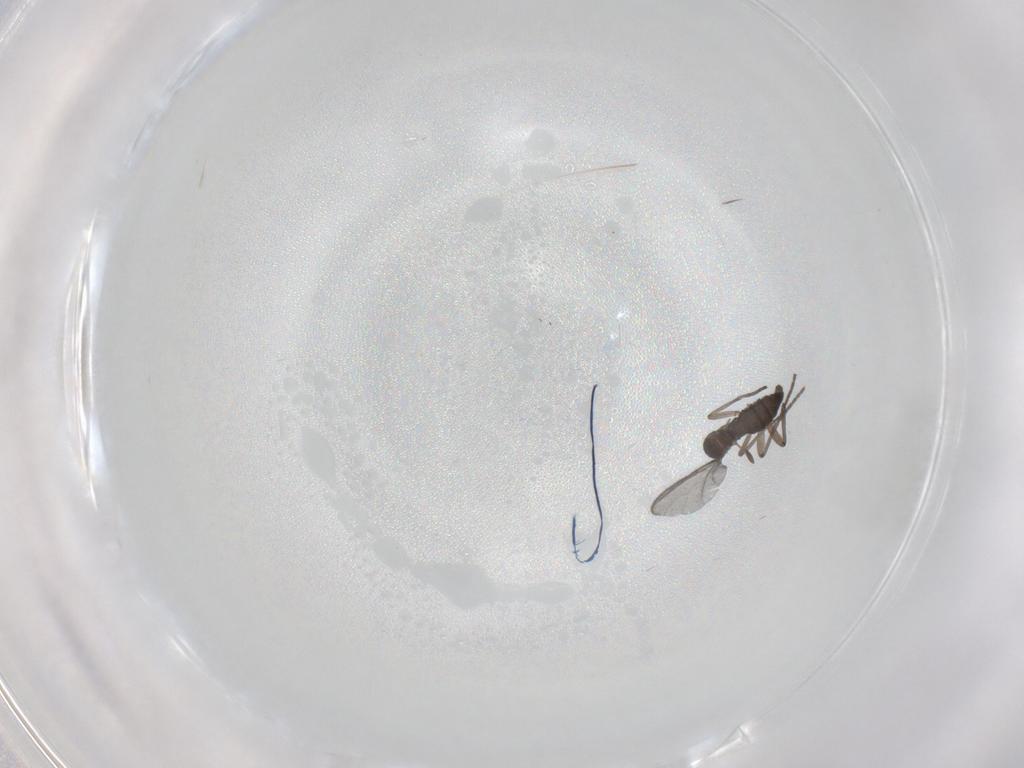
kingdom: Animalia
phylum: Arthropoda
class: Insecta
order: Diptera
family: Sciaridae
